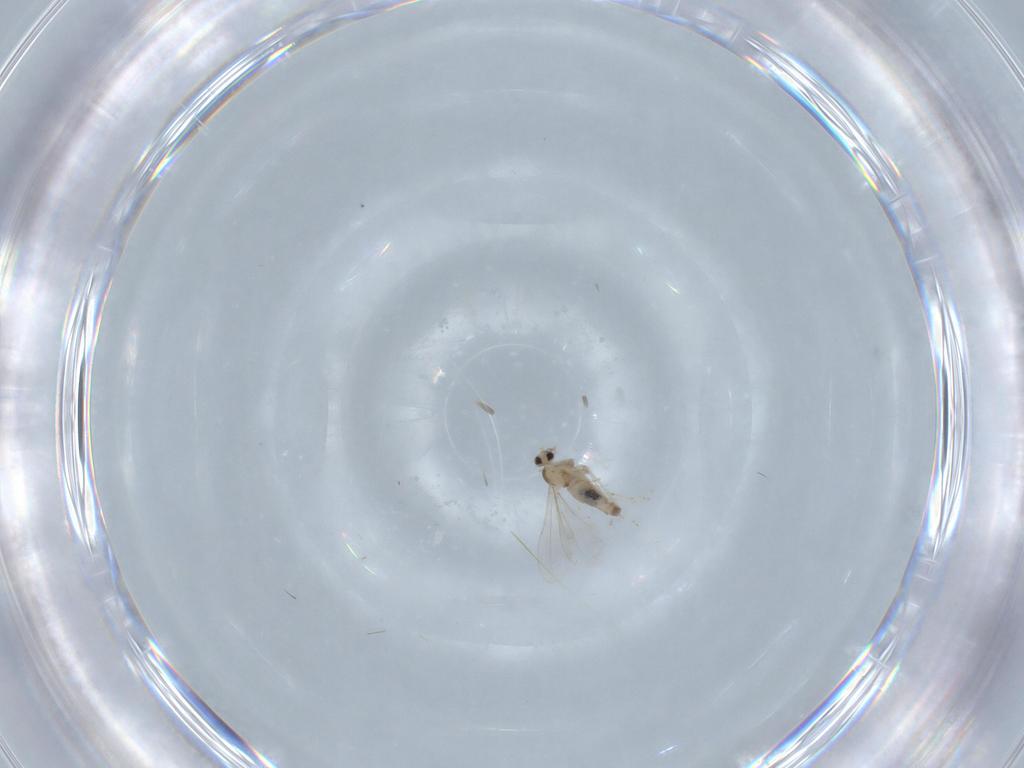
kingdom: Animalia
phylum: Arthropoda
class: Insecta
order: Diptera
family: Cecidomyiidae
